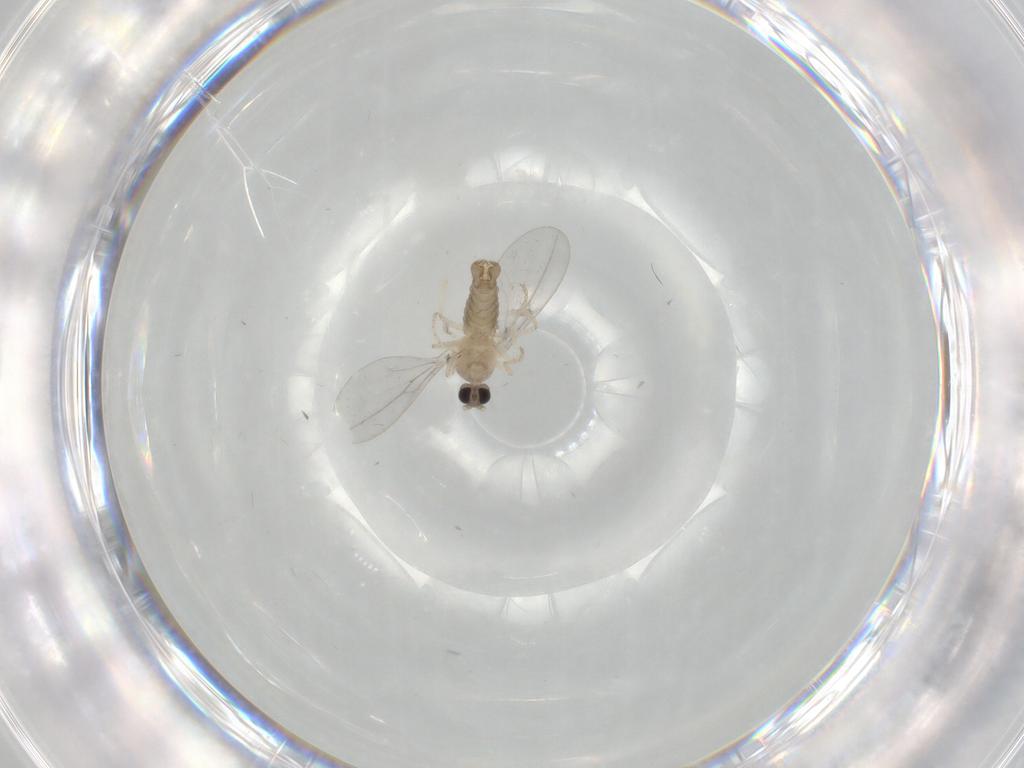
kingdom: Animalia
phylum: Arthropoda
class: Insecta
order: Diptera
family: Cecidomyiidae
